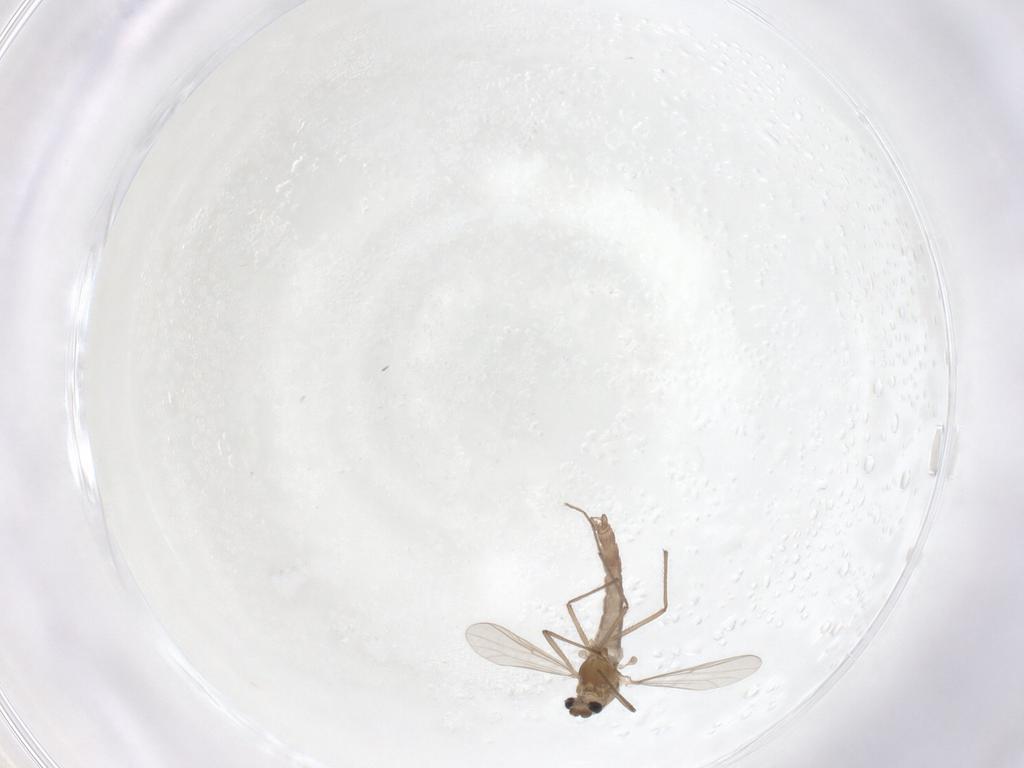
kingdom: Animalia
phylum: Arthropoda
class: Insecta
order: Diptera
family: Chironomidae
